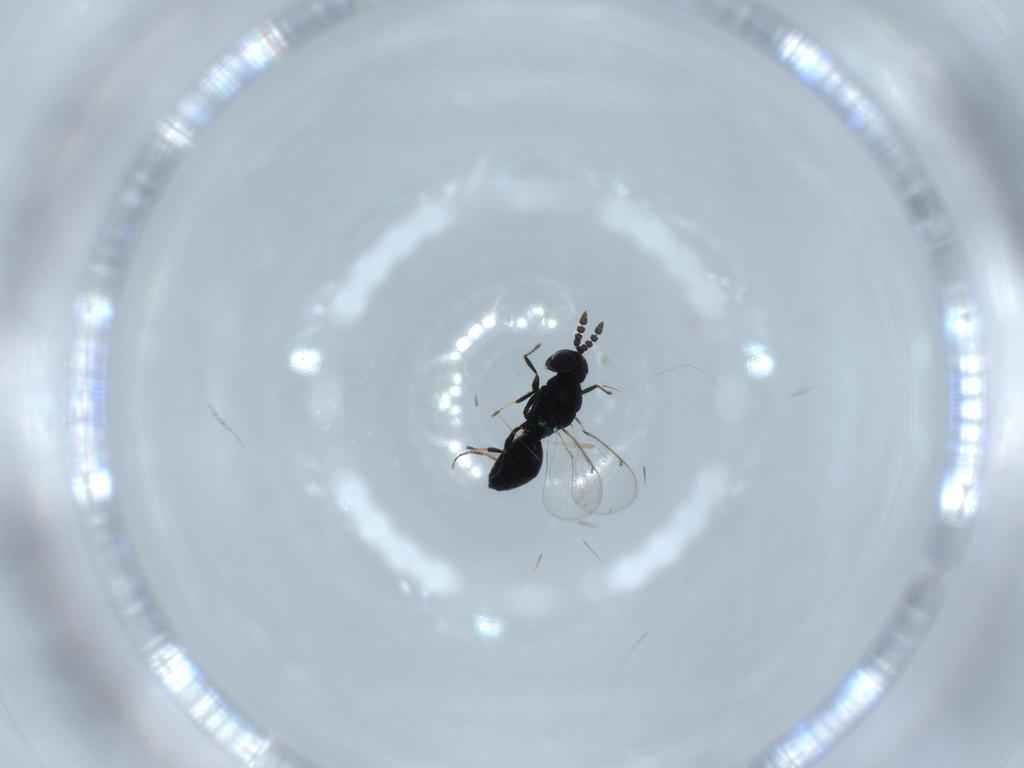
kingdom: Animalia
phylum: Arthropoda
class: Insecta
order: Hymenoptera
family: Eulophidae
